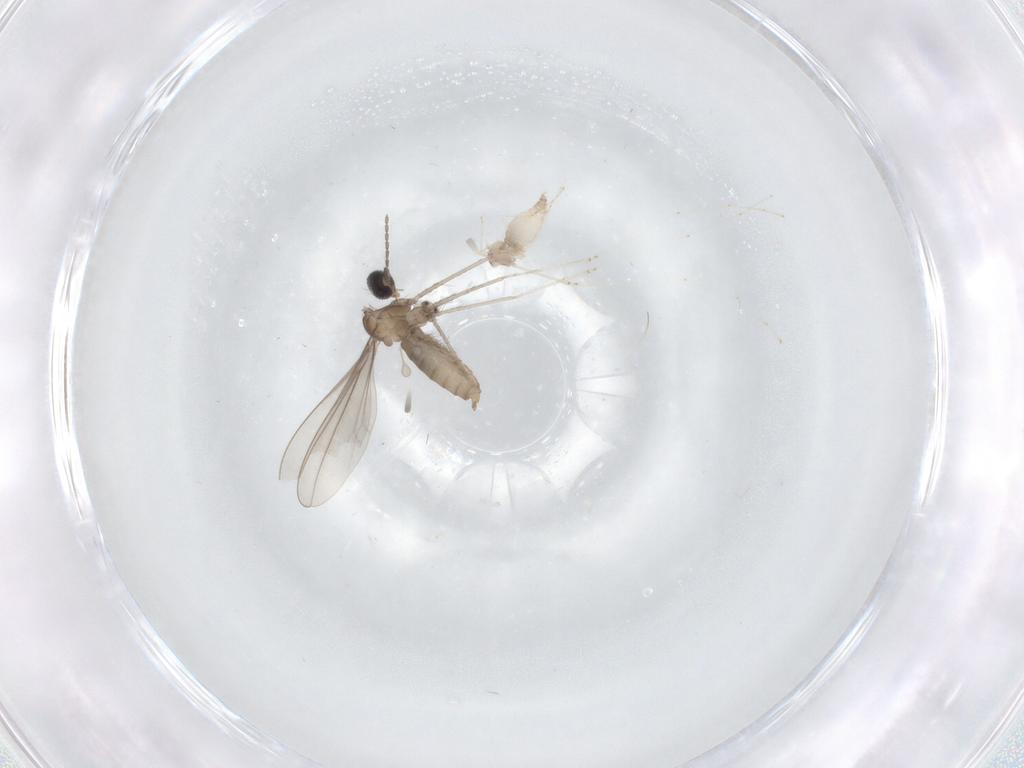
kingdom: Animalia
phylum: Arthropoda
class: Insecta
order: Diptera
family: Cecidomyiidae
